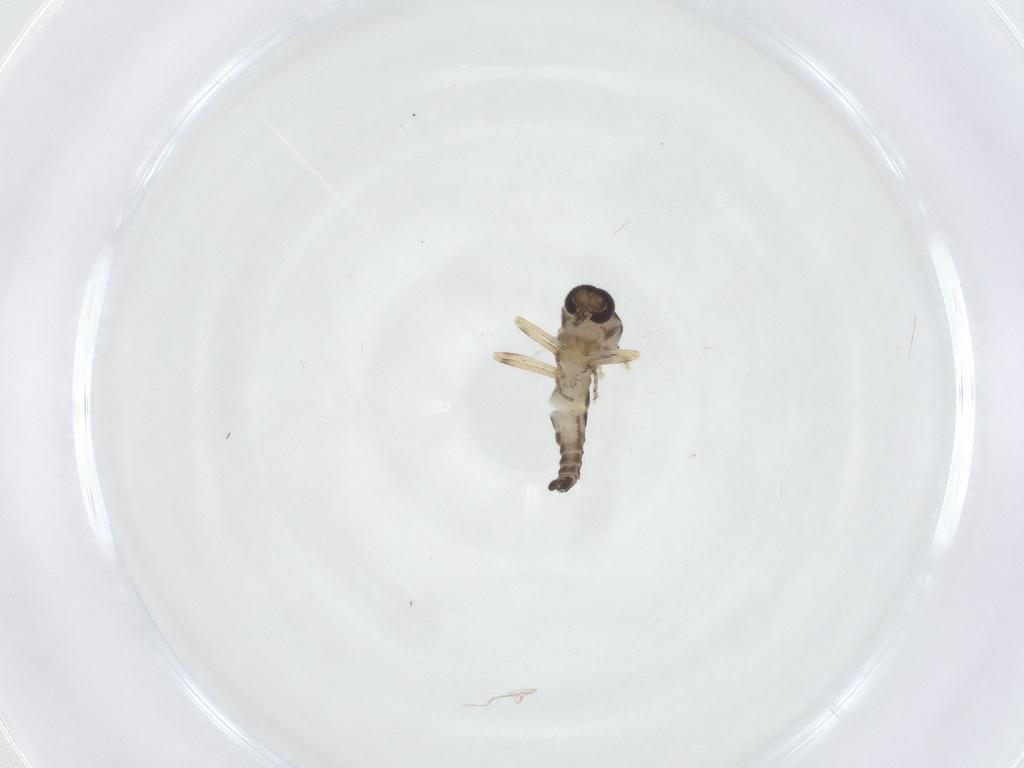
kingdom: Animalia
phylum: Arthropoda
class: Insecta
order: Diptera
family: Ceratopogonidae
